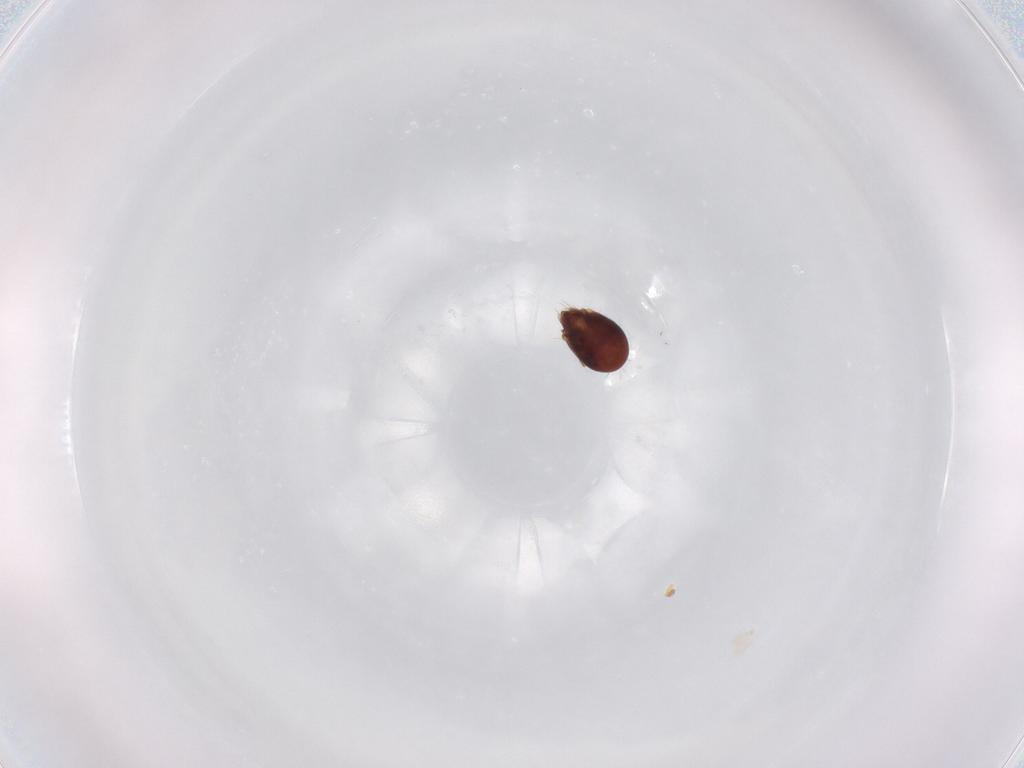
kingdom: Animalia
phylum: Arthropoda
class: Arachnida
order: Sarcoptiformes
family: Humerobatidae
